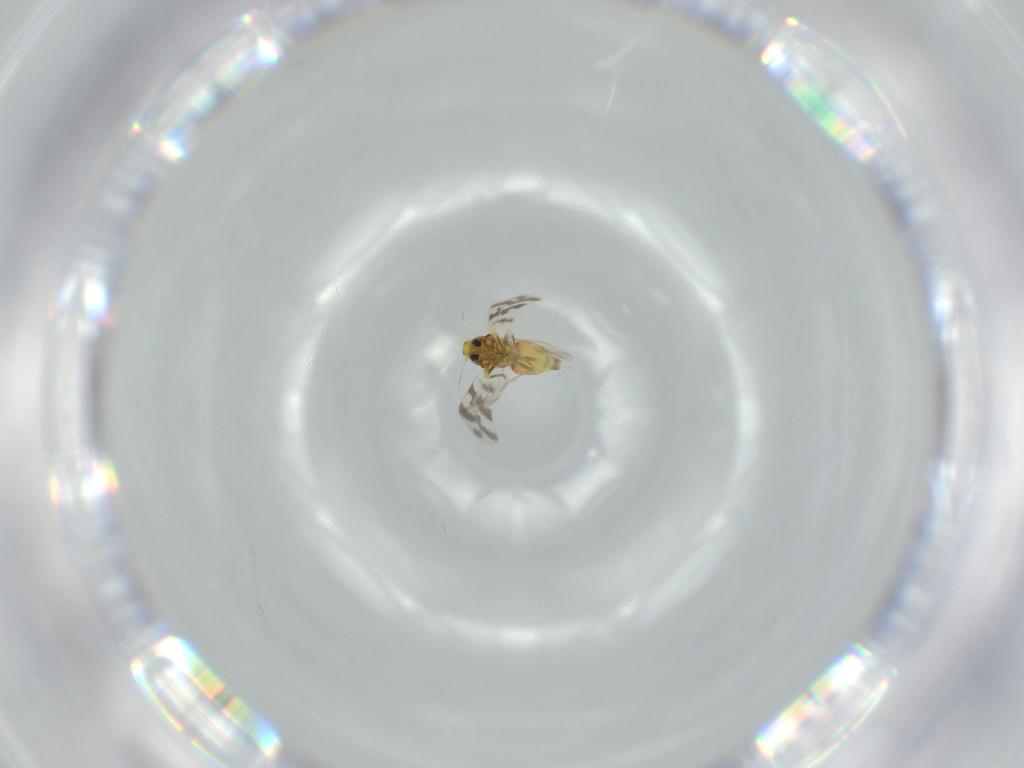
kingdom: Animalia
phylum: Arthropoda
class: Insecta
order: Hemiptera
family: Aleyrodidae
